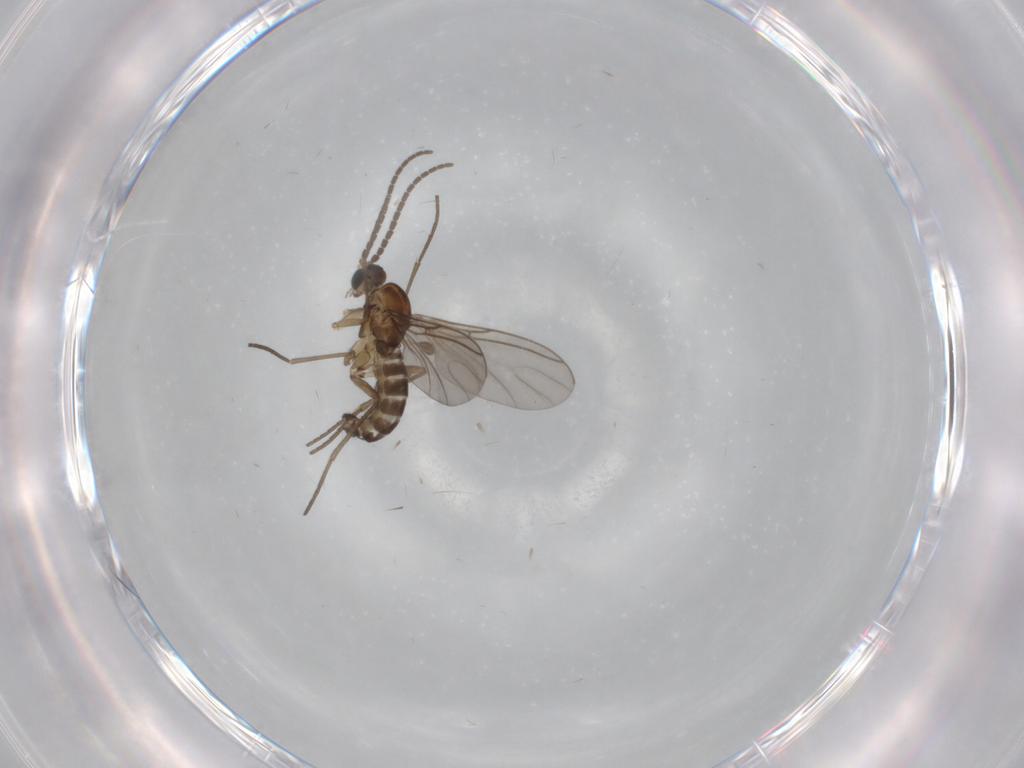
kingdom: Animalia
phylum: Arthropoda
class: Insecta
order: Diptera
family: Sciaridae
